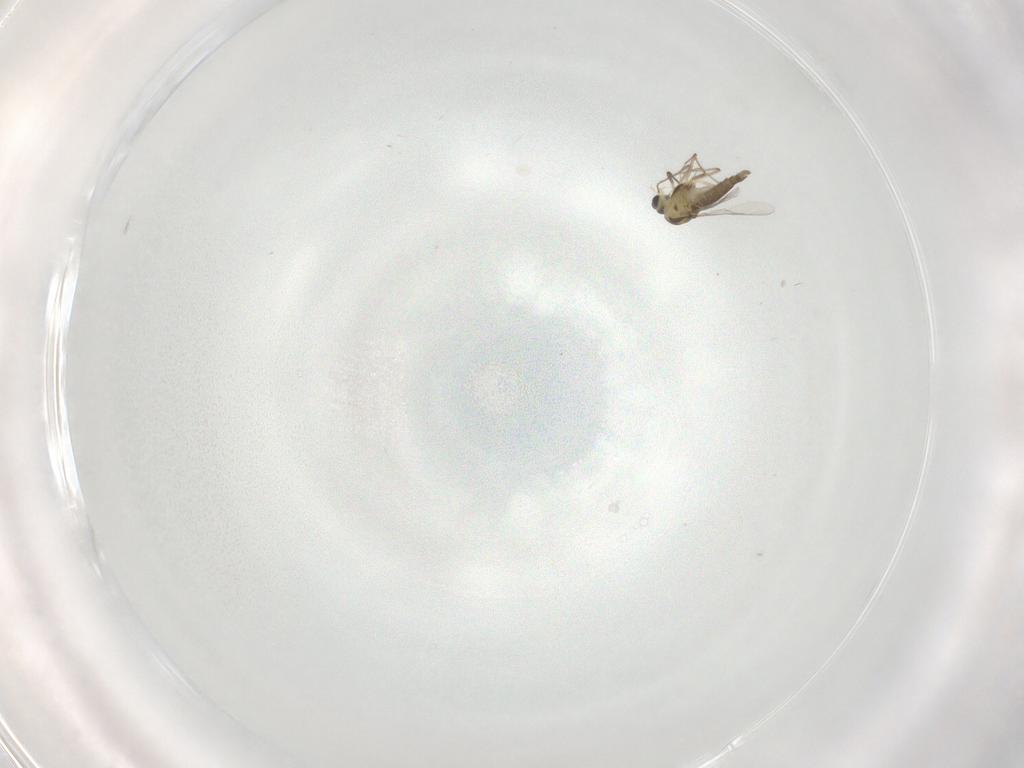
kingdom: Animalia
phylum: Arthropoda
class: Insecta
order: Diptera
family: Chironomidae
